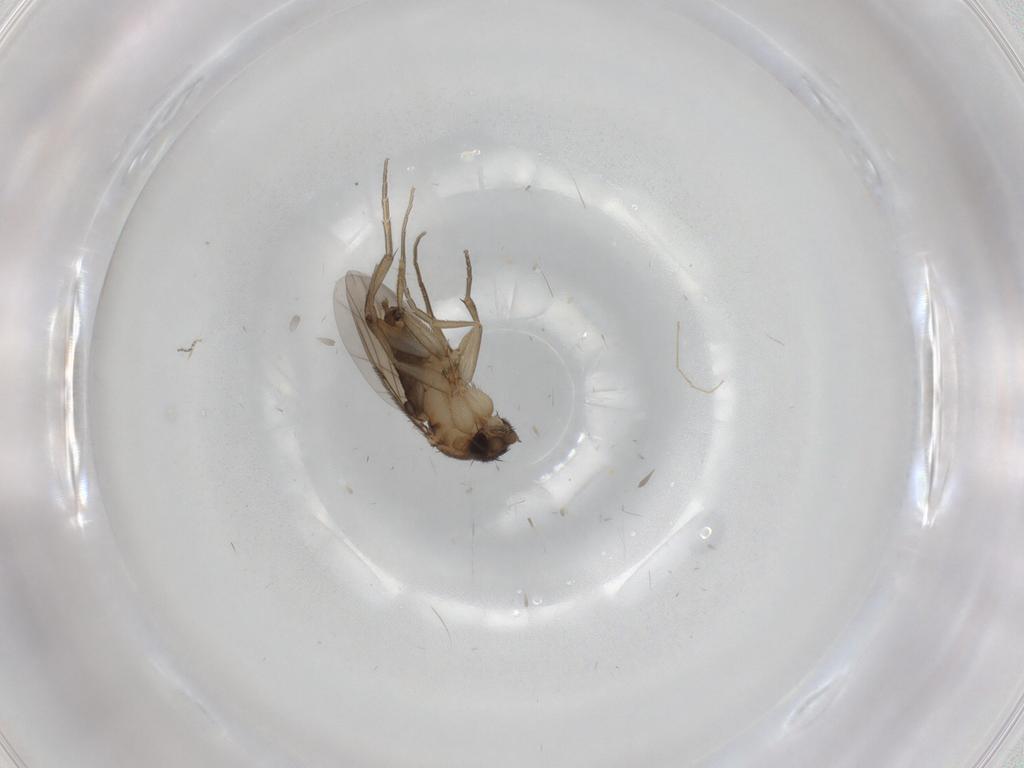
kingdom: Animalia
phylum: Arthropoda
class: Insecta
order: Diptera
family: Phoridae
